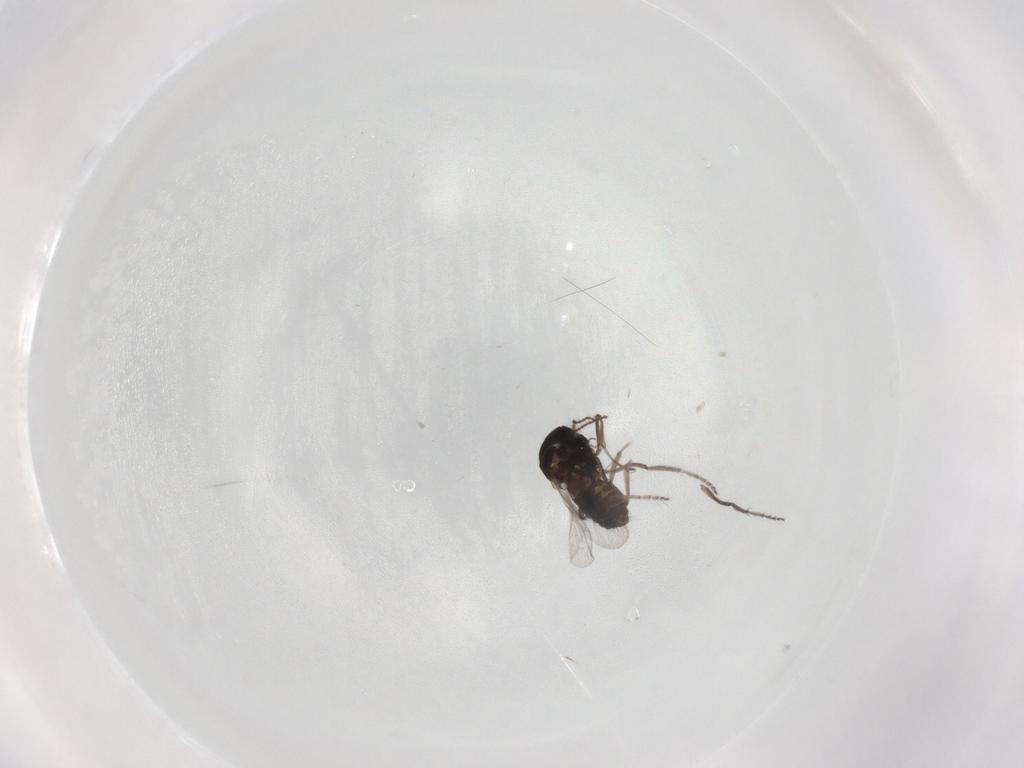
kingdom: Animalia
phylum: Arthropoda
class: Insecta
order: Diptera
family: Ceratopogonidae
